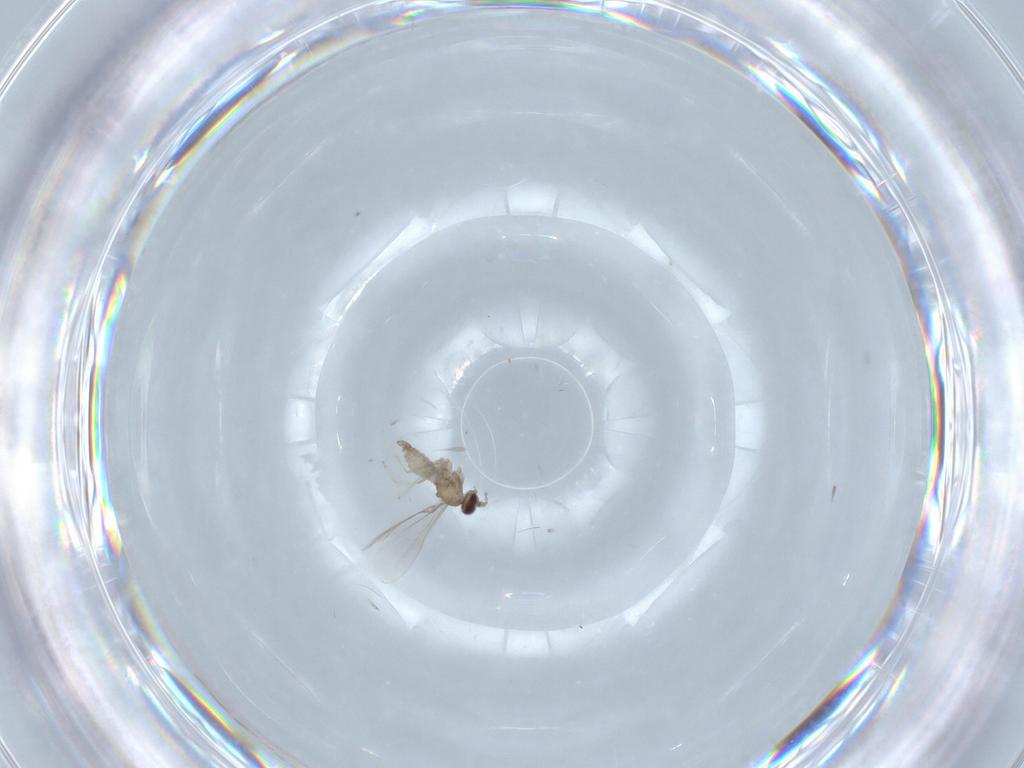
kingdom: Animalia
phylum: Arthropoda
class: Insecta
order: Diptera
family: Cecidomyiidae
